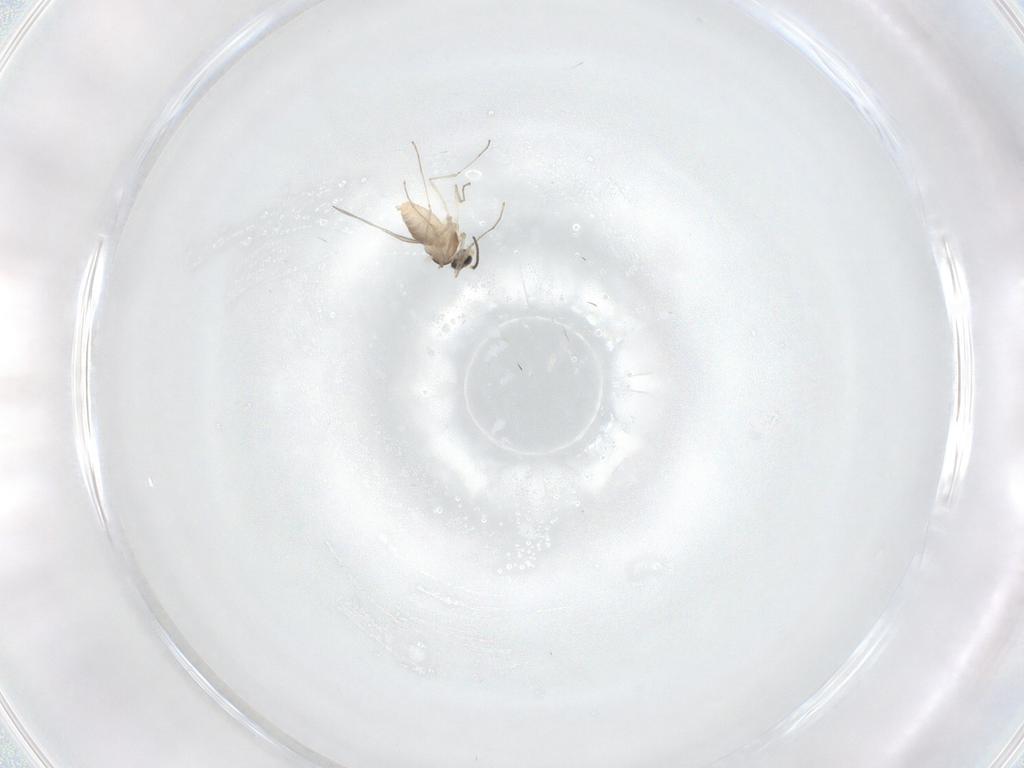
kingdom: Animalia
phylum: Arthropoda
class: Insecta
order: Diptera
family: Cecidomyiidae
